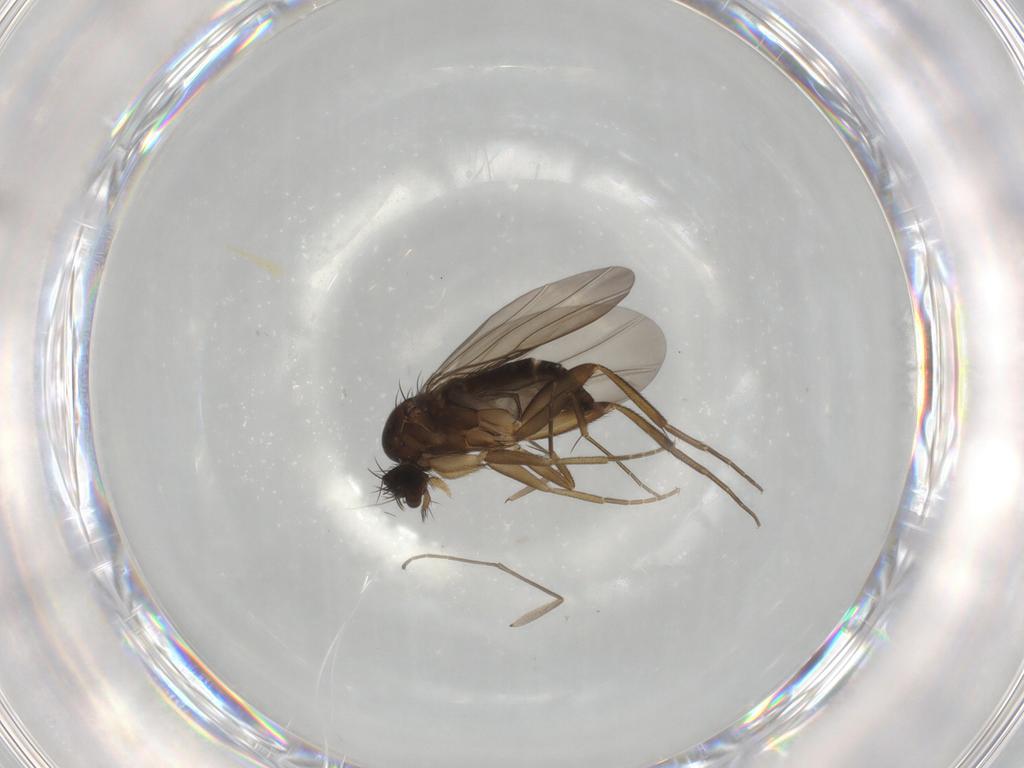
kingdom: Animalia
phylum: Arthropoda
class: Insecta
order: Diptera
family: Phoridae
